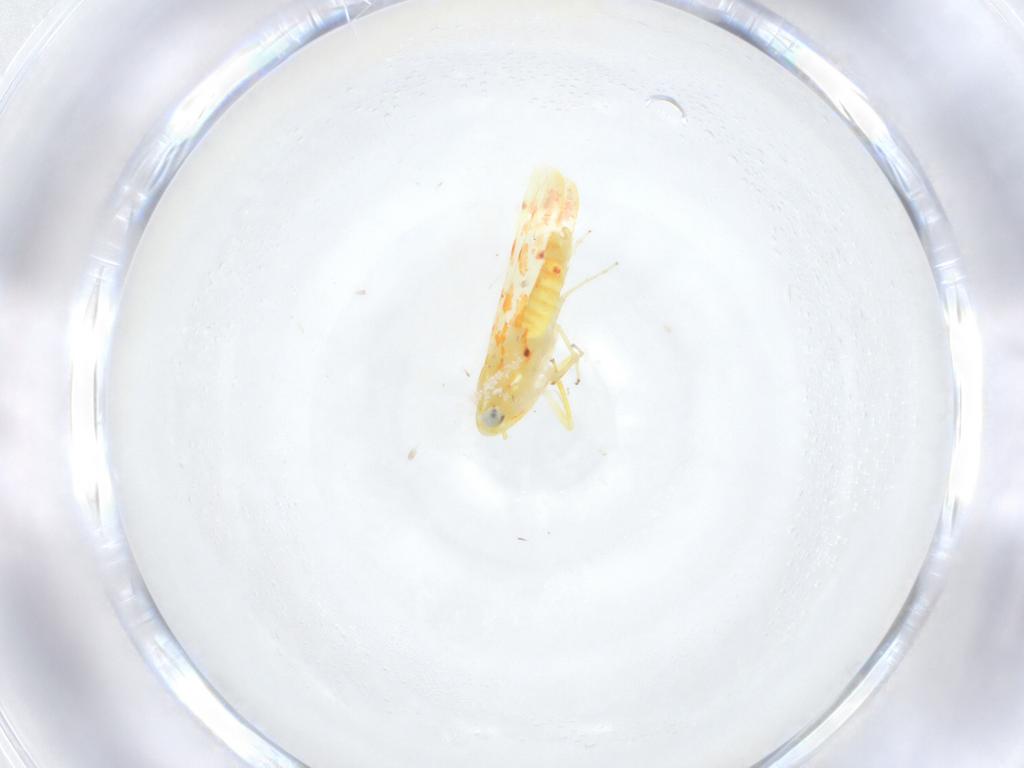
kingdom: Animalia
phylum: Arthropoda
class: Insecta
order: Hemiptera
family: Cicadellidae
